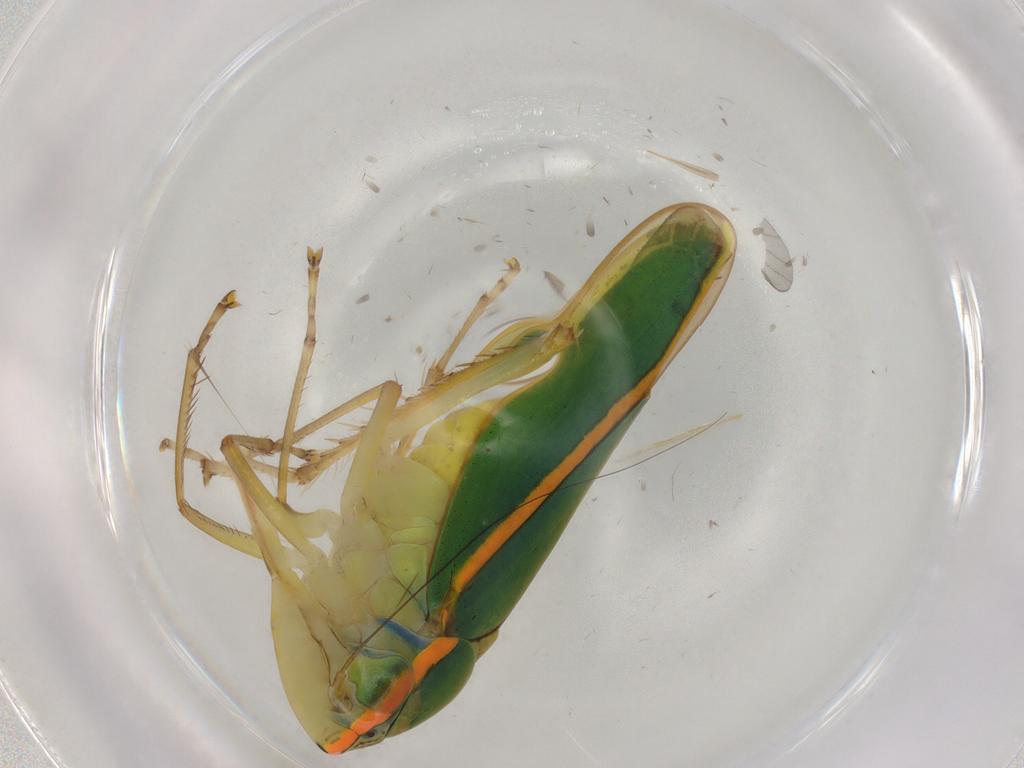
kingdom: Animalia
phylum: Arthropoda
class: Insecta
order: Hemiptera
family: Cicadellidae
